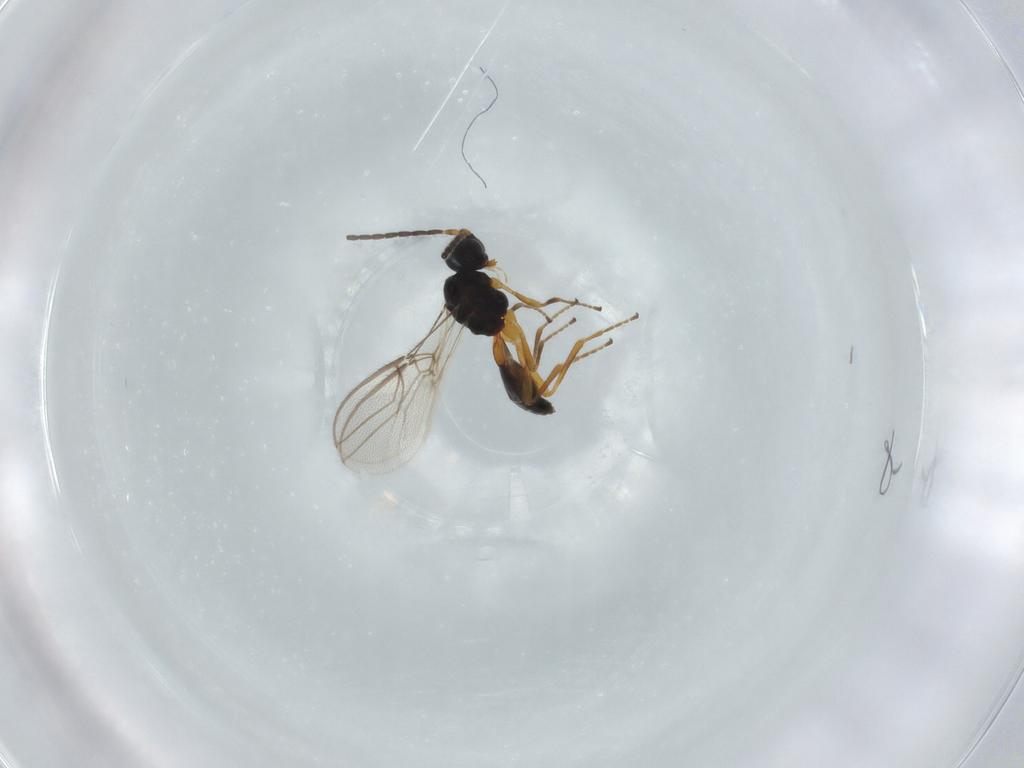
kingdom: Animalia
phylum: Arthropoda
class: Insecta
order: Hymenoptera
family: Braconidae
